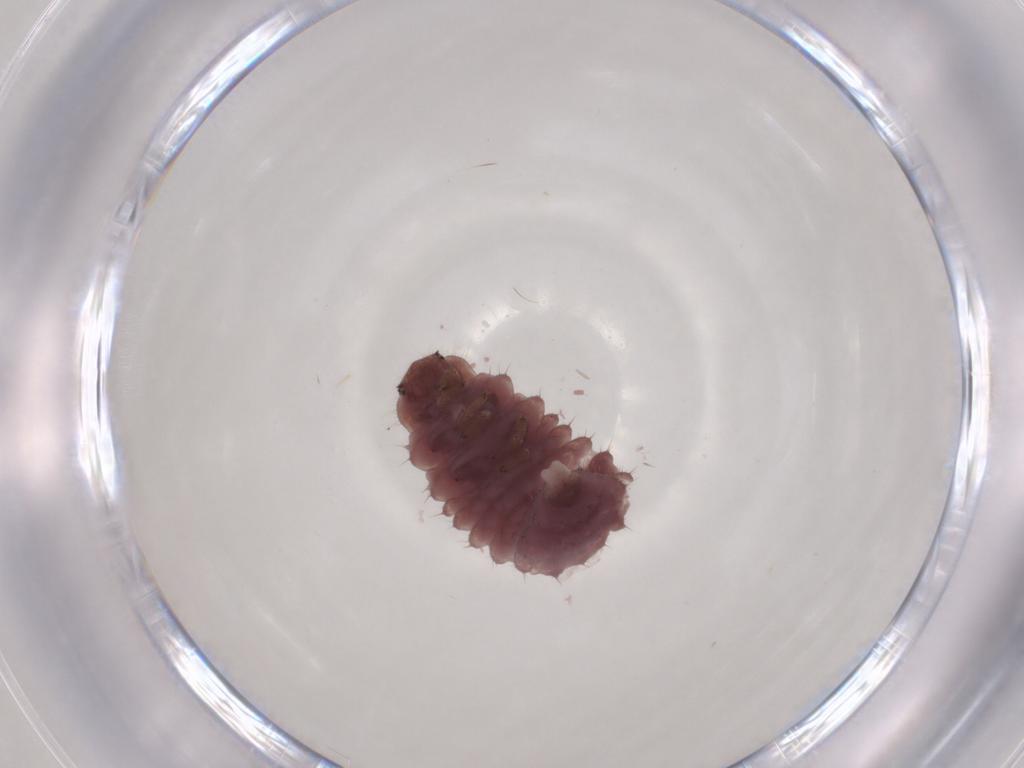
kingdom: Animalia
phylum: Arthropoda
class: Insecta
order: Coleoptera
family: Coccinellidae
